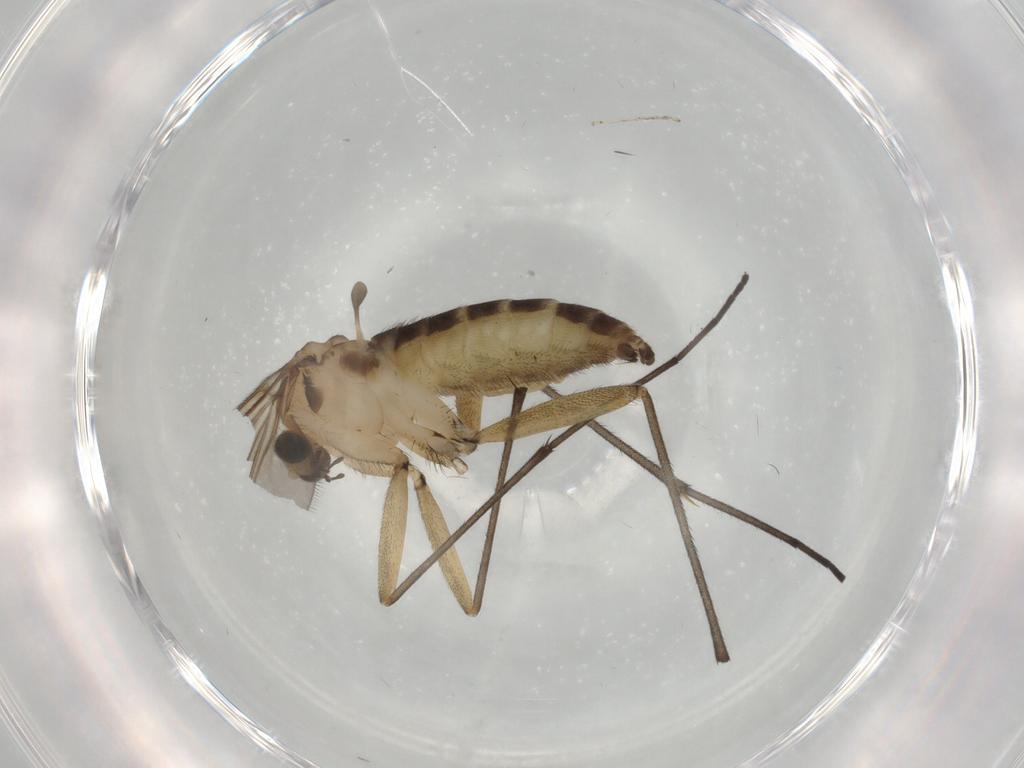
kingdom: Animalia
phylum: Arthropoda
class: Insecta
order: Diptera
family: Sciaridae
